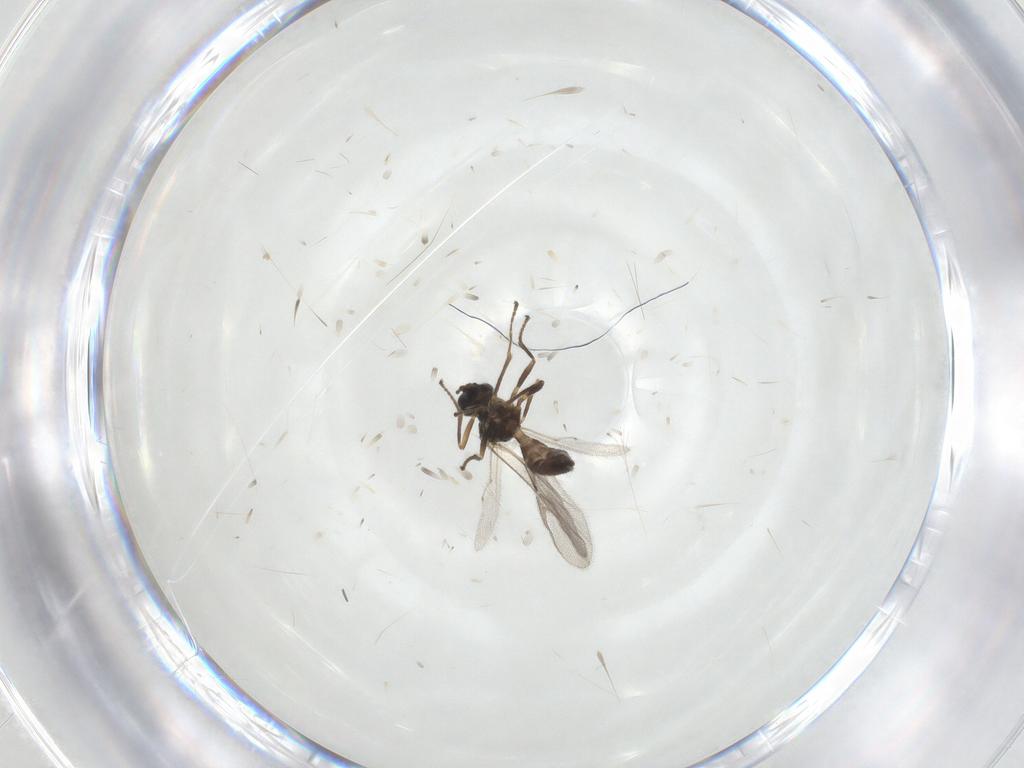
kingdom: Animalia
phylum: Arthropoda
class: Insecta
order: Hymenoptera
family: Braconidae
